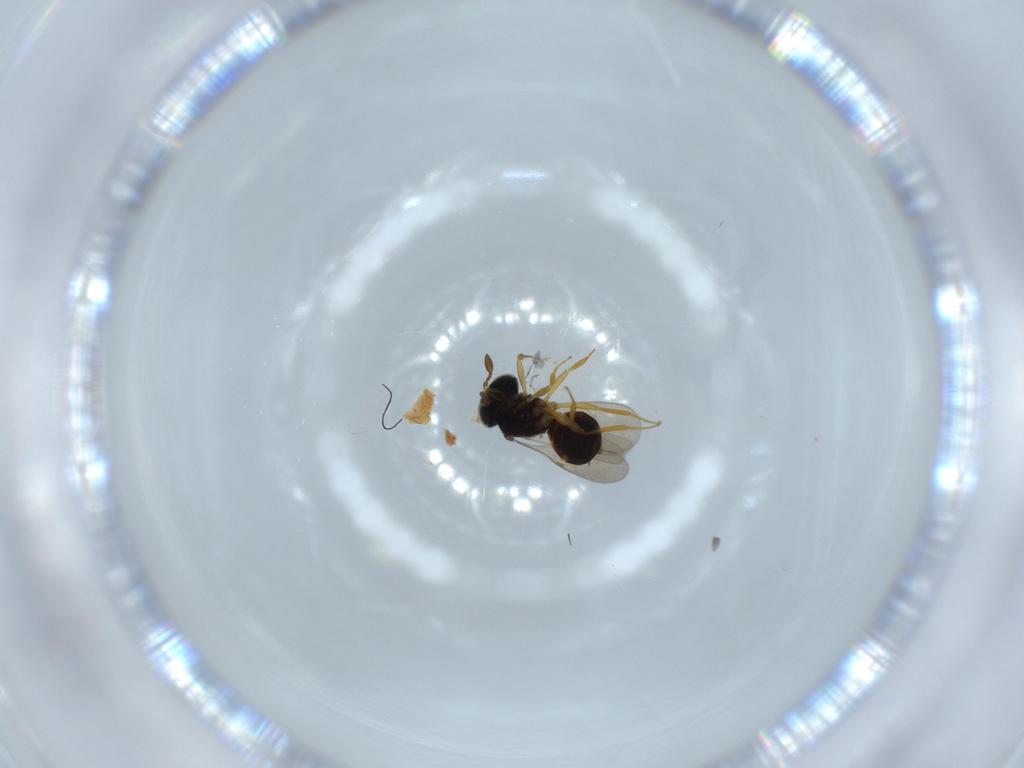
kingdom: Animalia
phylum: Arthropoda
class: Insecta
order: Hymenoptera
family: Scelionidae
